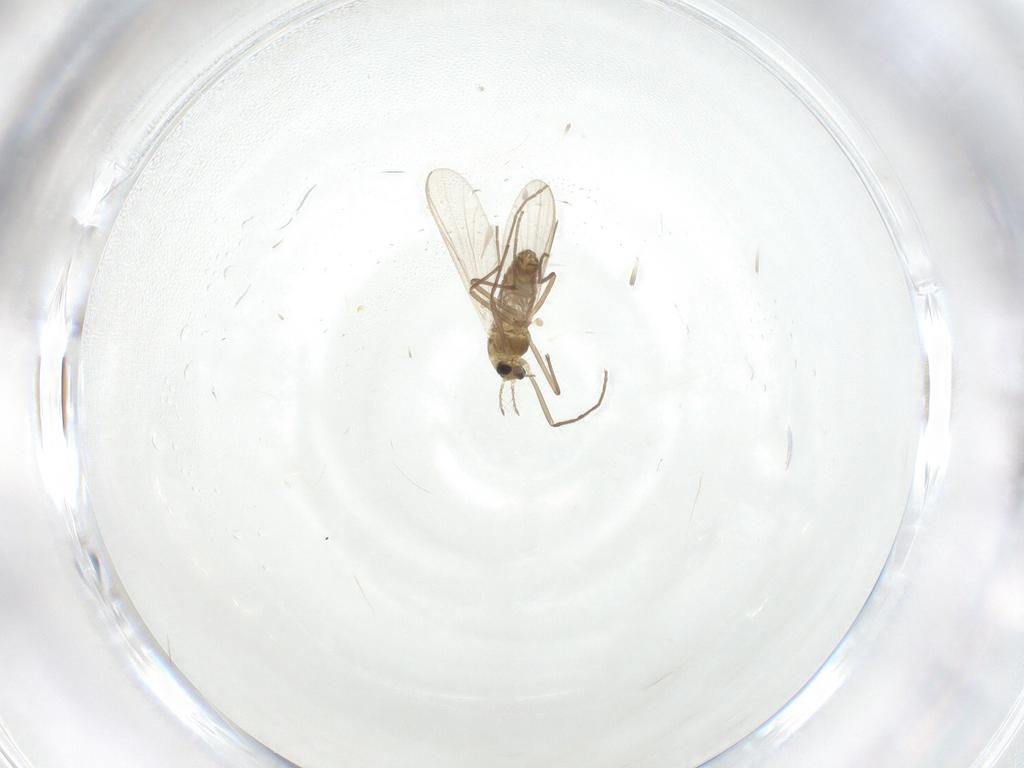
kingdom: Animalia
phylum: Arthropoda
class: Insecta
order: Diptera
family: Chironomidae
